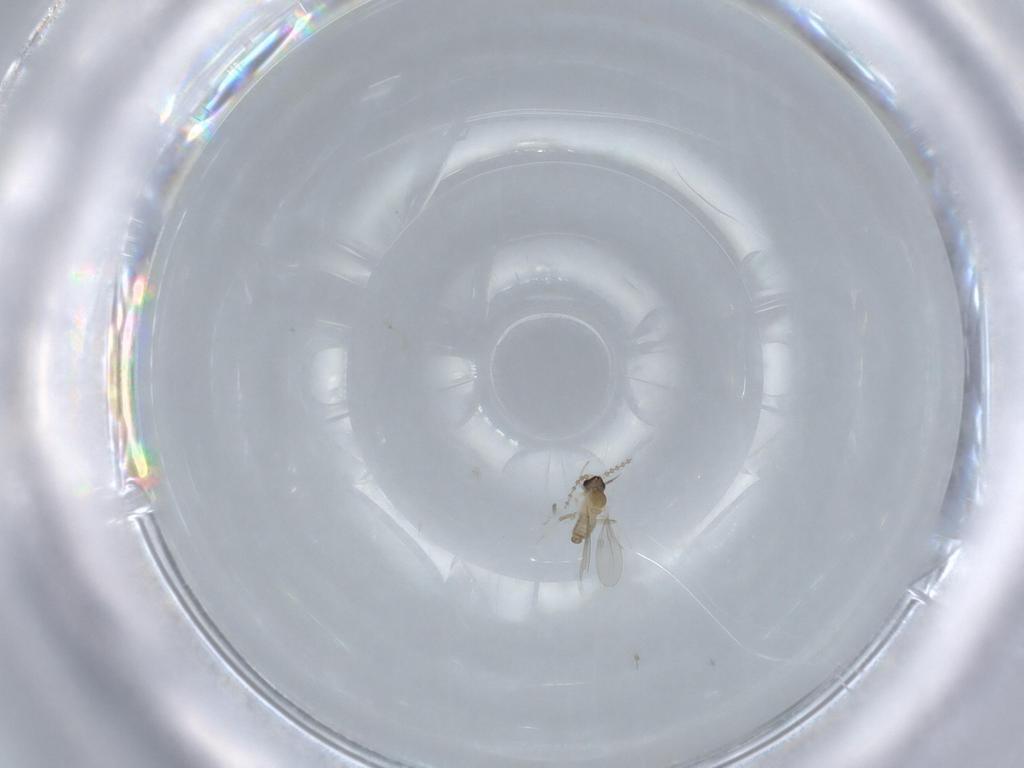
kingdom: Animalia
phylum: Arthropoda
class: Insecta
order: Diptera
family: Cecidomyiidae
